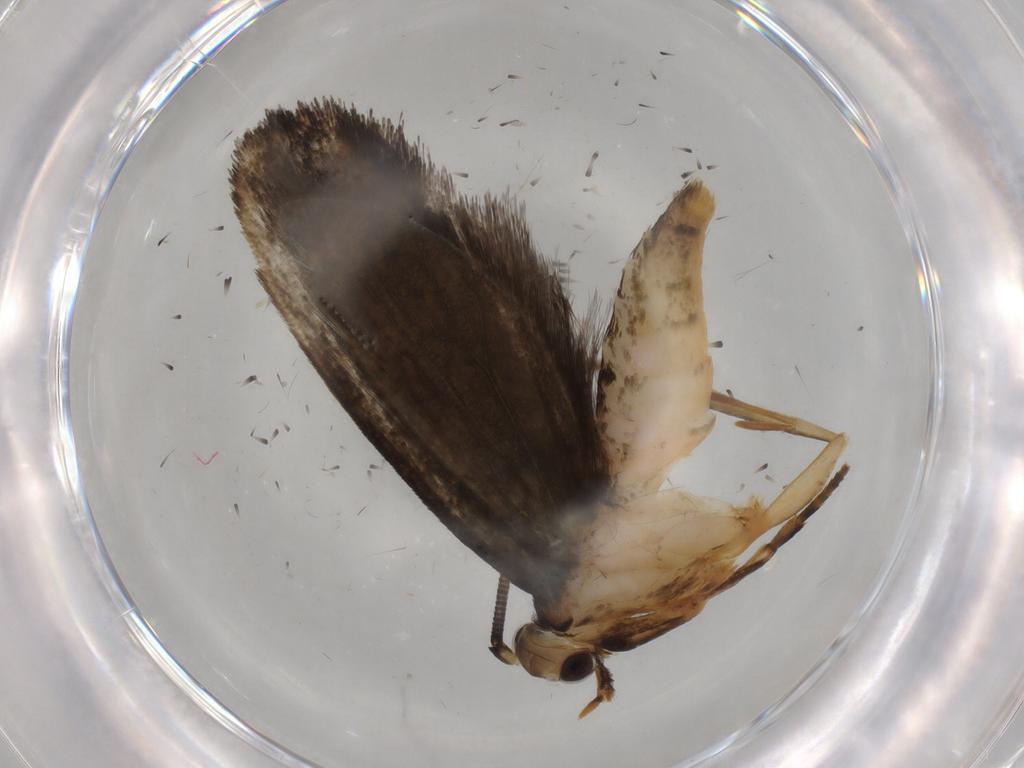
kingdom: Animalia
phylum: Arthropoda
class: Insecta
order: Lepidoptera
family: Tineidae
